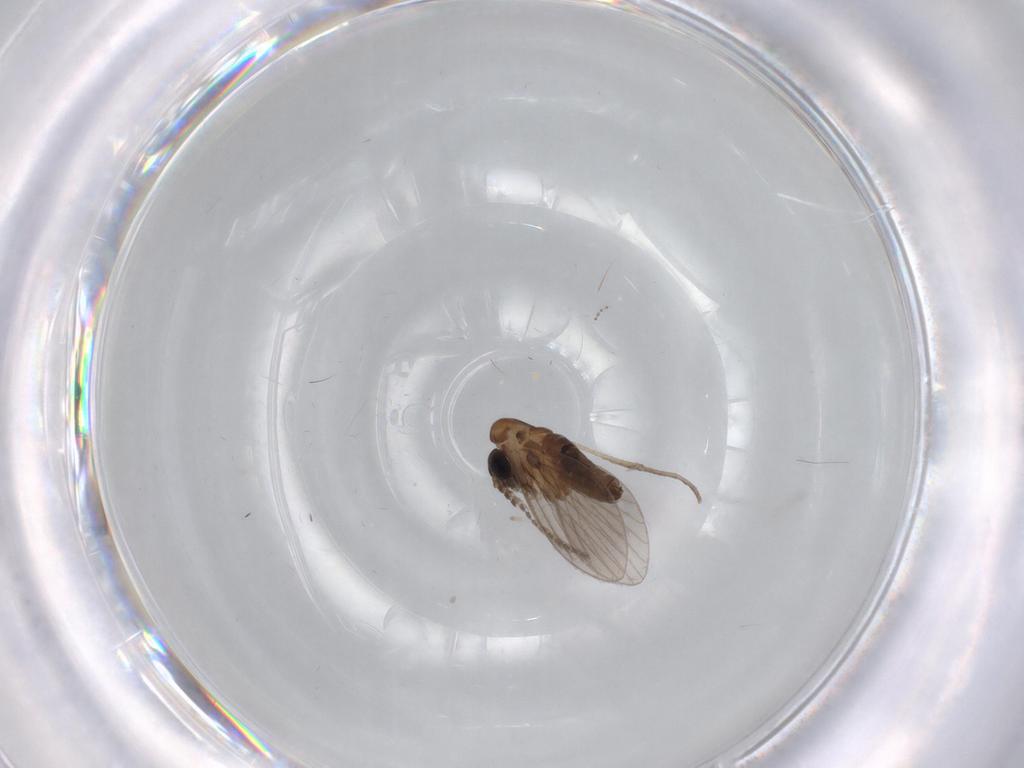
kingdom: Animalia
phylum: Arthropoda
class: Insecta
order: Diptera
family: Cecidomyiidae
